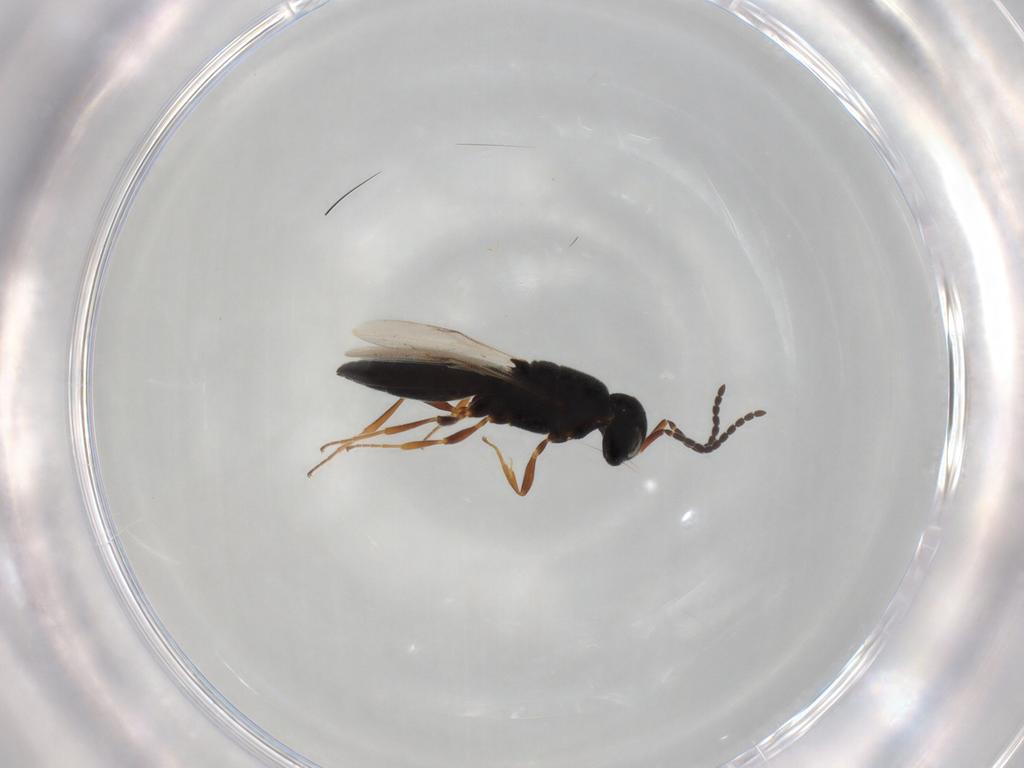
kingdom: Animalia
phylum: Arthropoda
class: Insecta
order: Hymenoptera
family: Scelionidae
